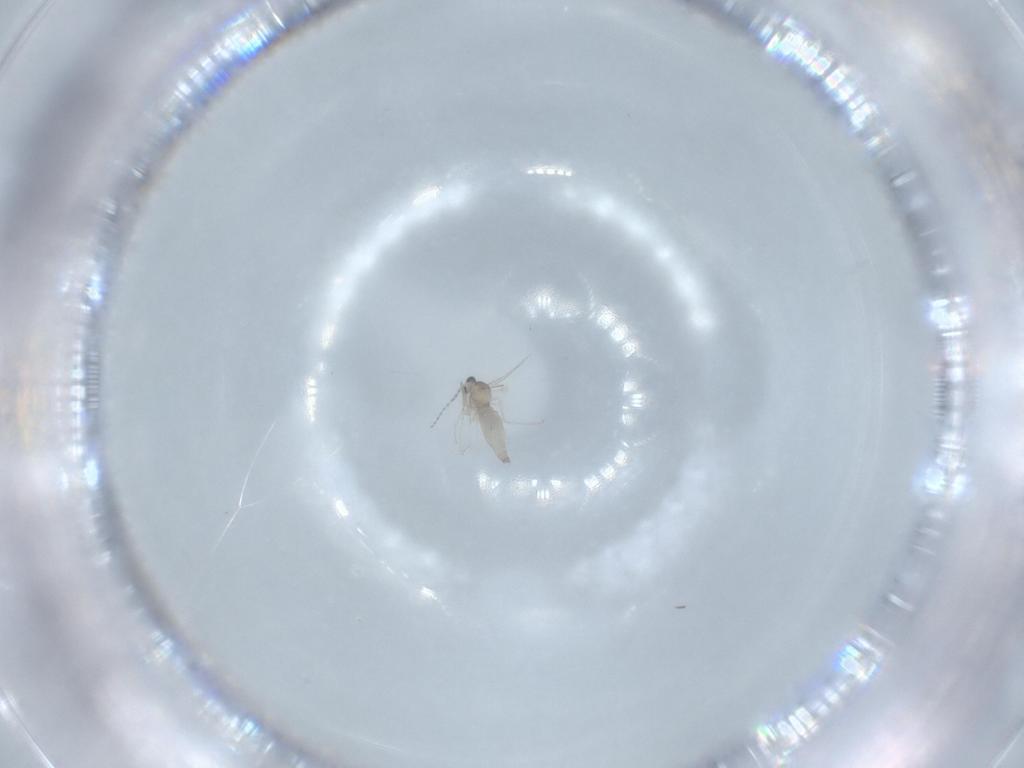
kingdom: Animalia
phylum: Arthropoda
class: Insecta
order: Diptera
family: Cecidomyiidae
